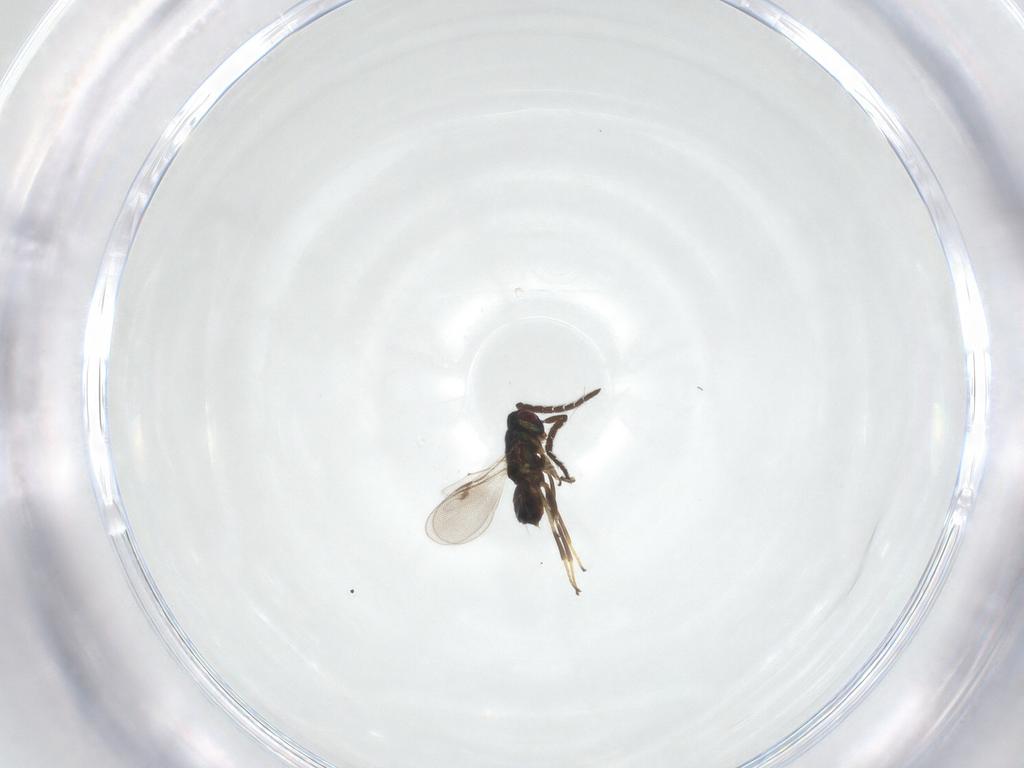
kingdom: Animalia
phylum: Arthropoda
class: Insecta
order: Hymenoptera
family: Encyrtidae
